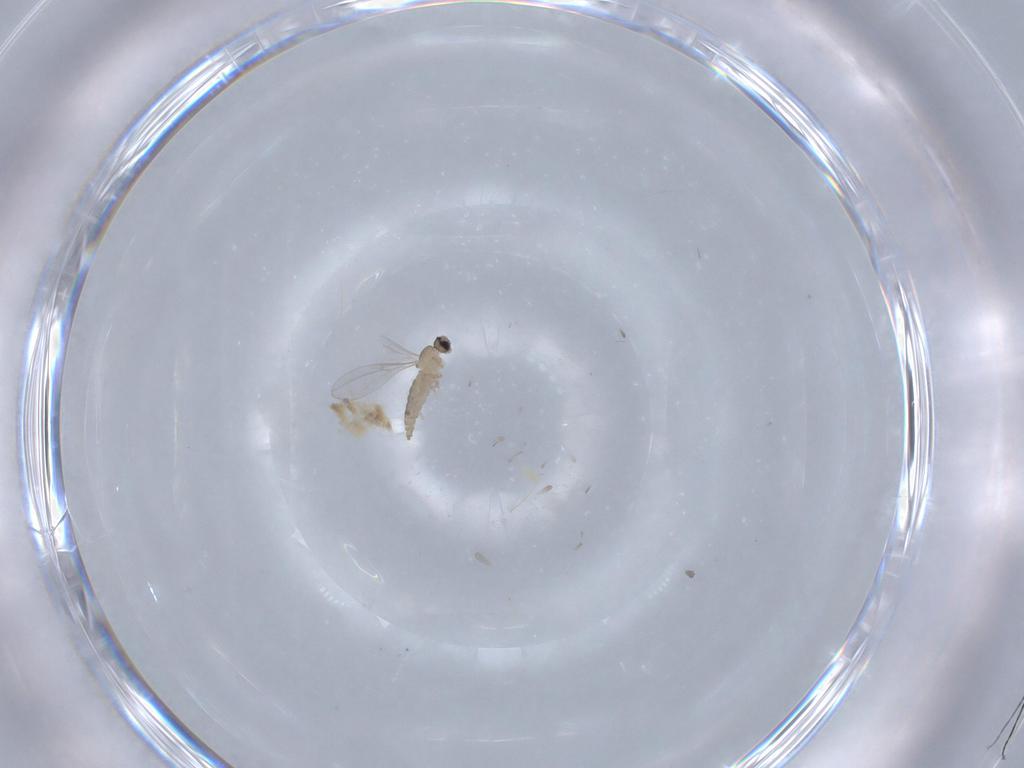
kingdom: Animalia
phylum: Arthropoda
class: Insecta
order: Diptera
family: Cecidomyiidae
